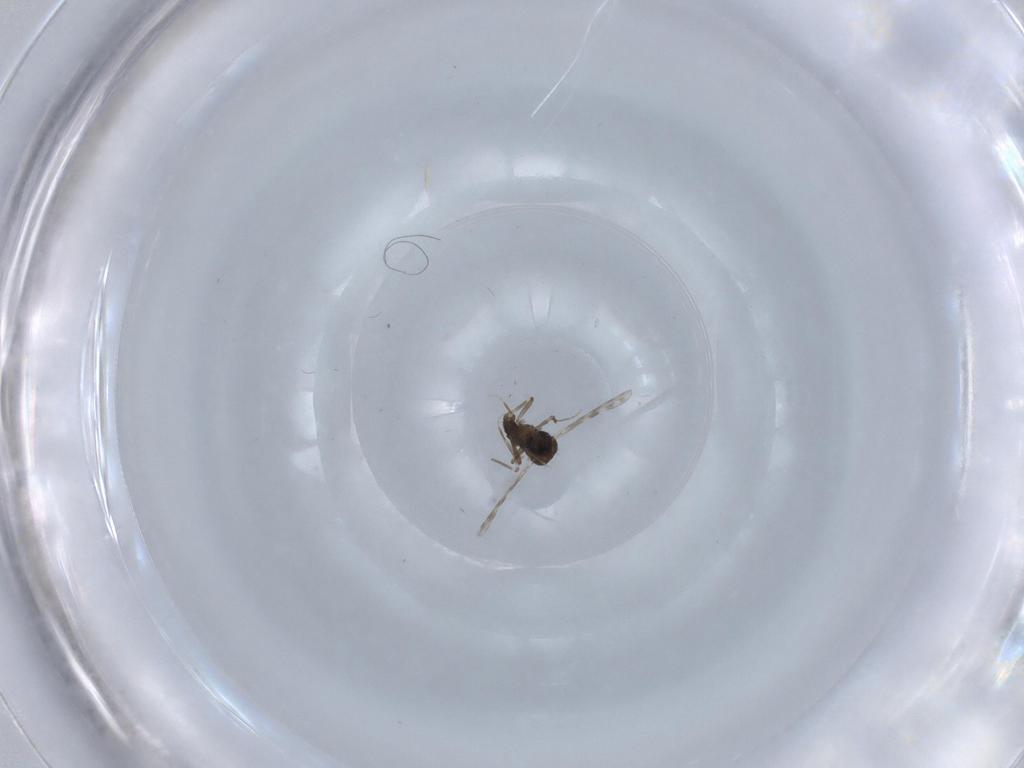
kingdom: Animalia
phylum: Arthropoda
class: Insecta
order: Diptera
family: Ceratopogonidae
